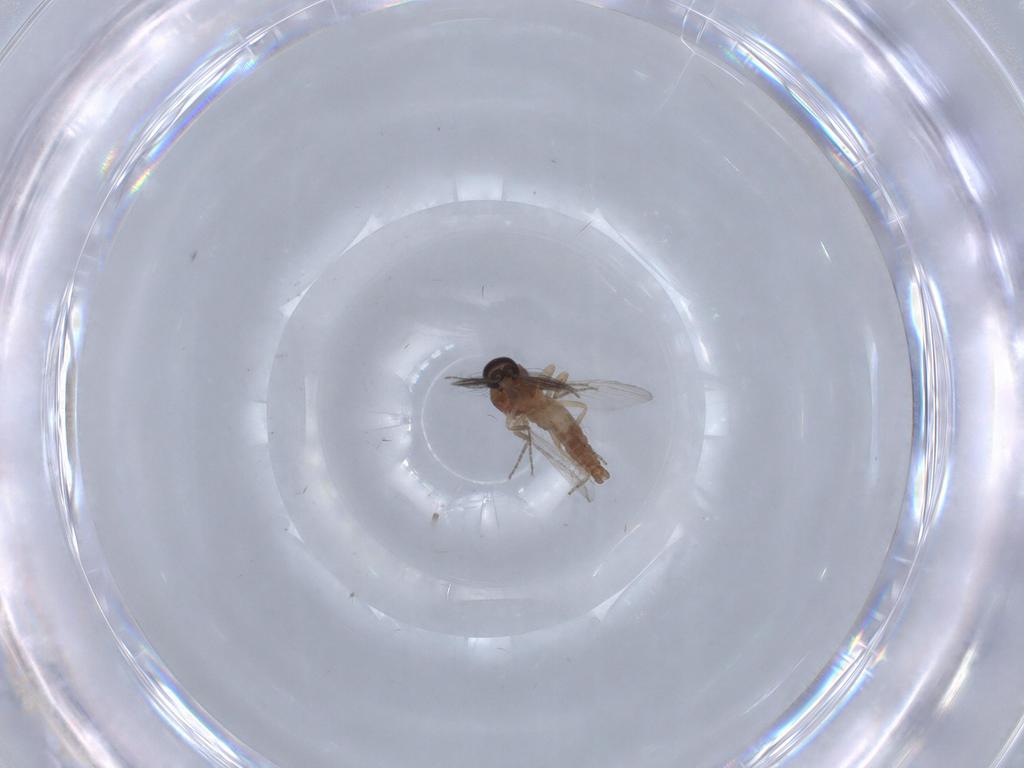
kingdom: Animalia
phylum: Arthropoda
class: Insecta
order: Diptera
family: Ceratopogonidae
